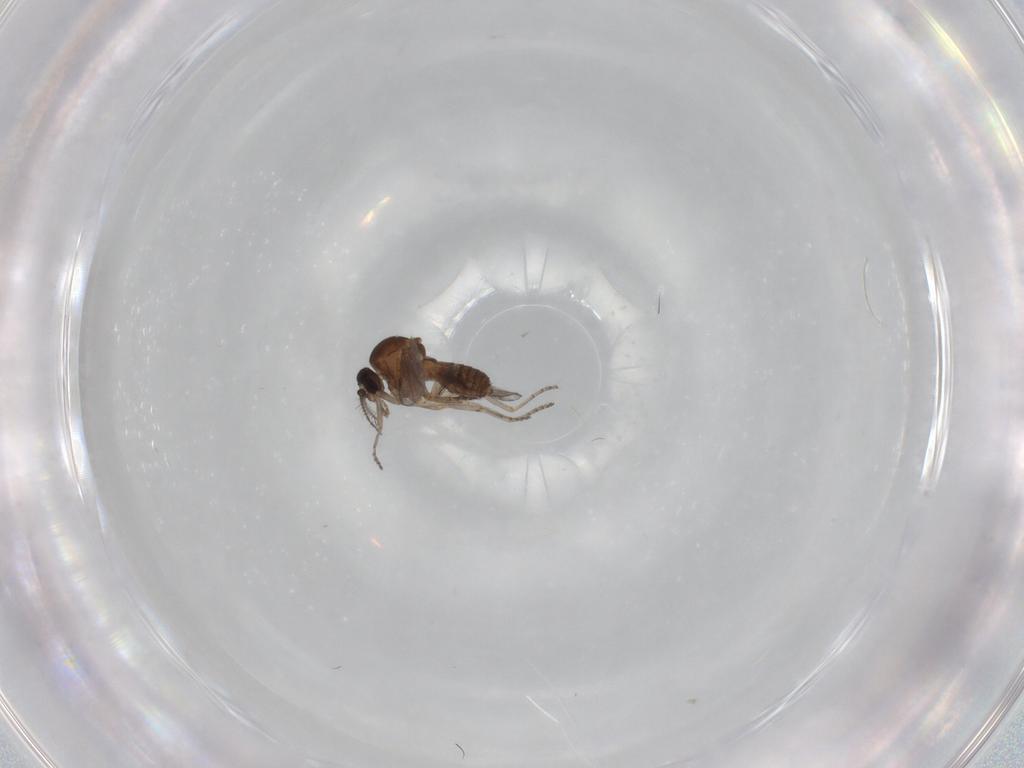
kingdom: Animalia
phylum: Arthropoda
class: Insecta
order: Diptera
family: Ceratopogonidae
